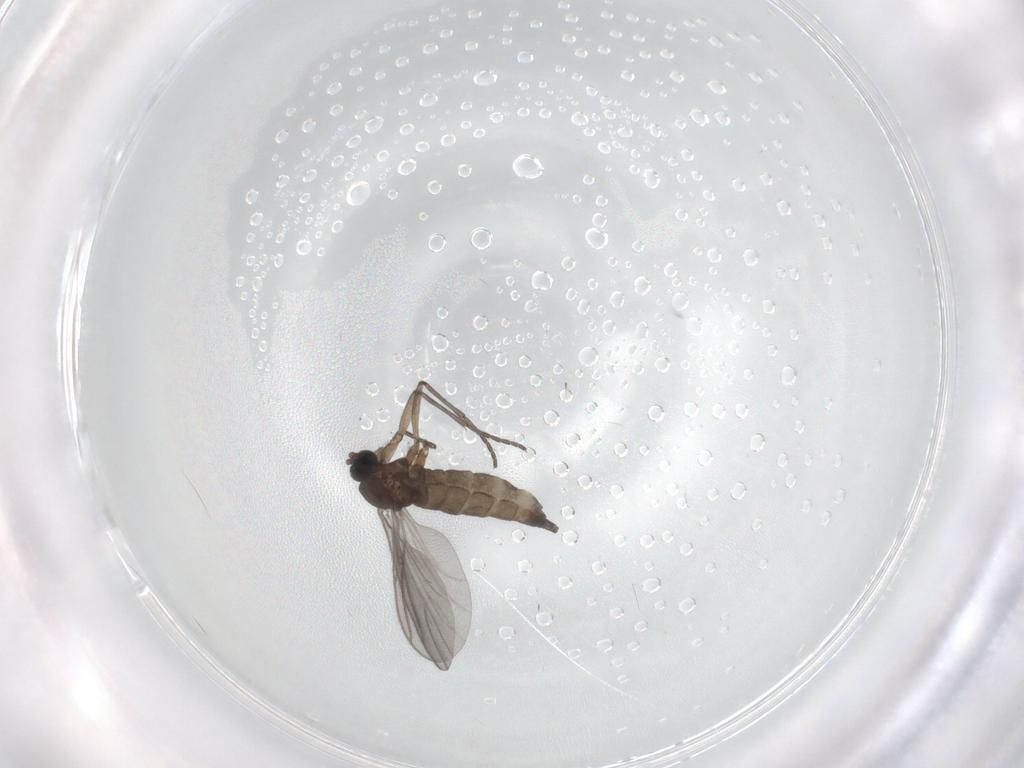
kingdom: Animalia
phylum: Arthropoda
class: Insecta
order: Diptera
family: Sciaridae
